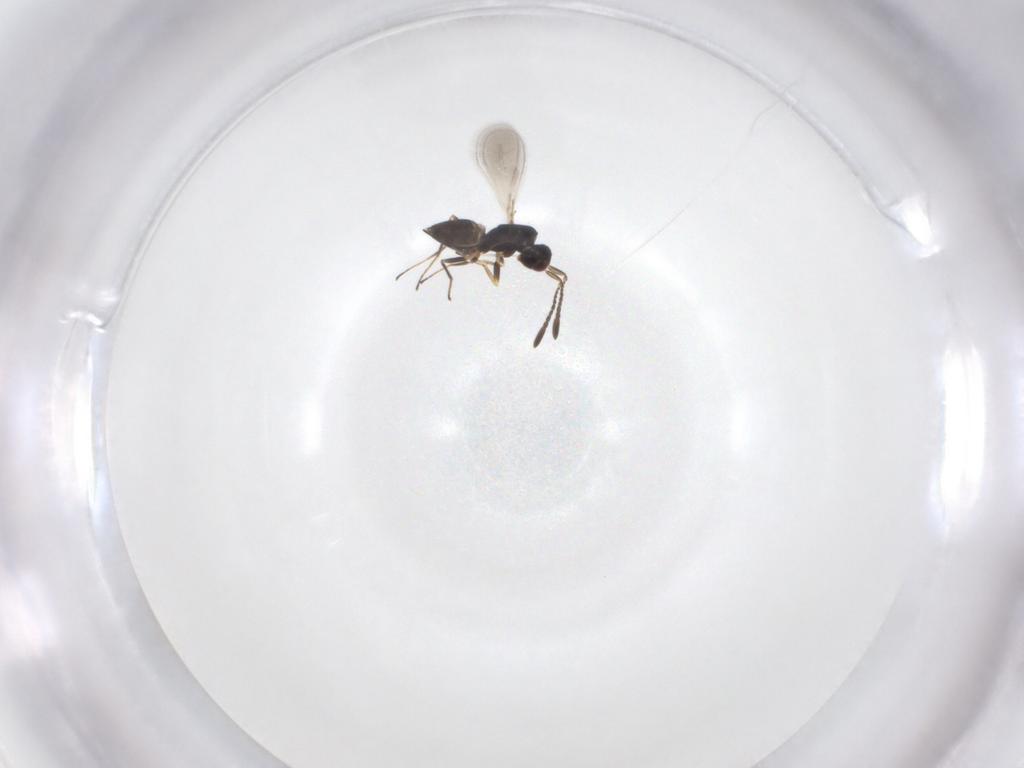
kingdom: Animalia
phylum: Arthropoda
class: Insecta
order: Hymenoptera
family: Mymaridae
